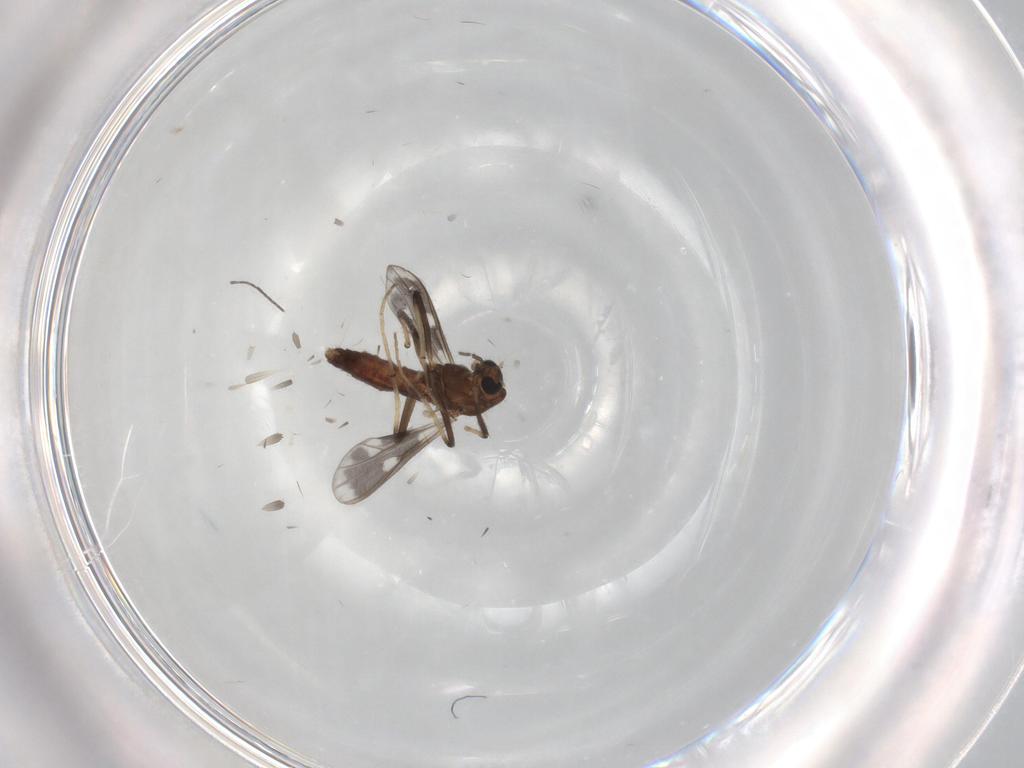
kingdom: Animalia
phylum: Arthropoda
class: Insecta
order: Diptera
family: Chironomidae
